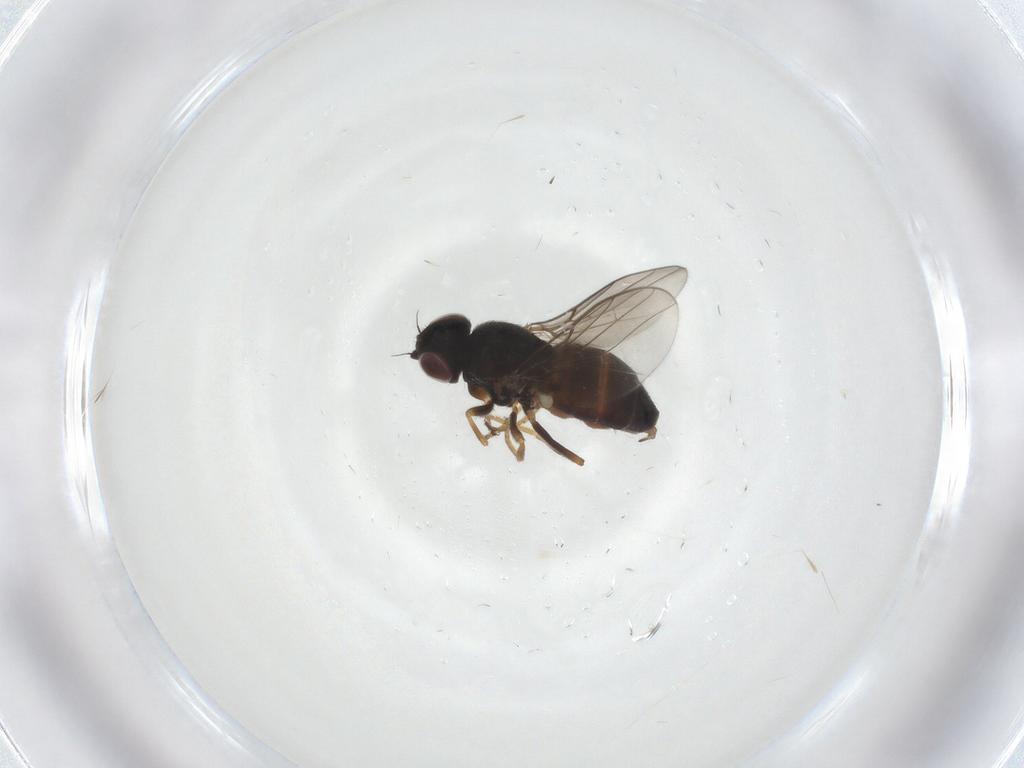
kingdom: Animalia
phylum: Arthropoda
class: Insecta
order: Diptera
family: Chloropidae
